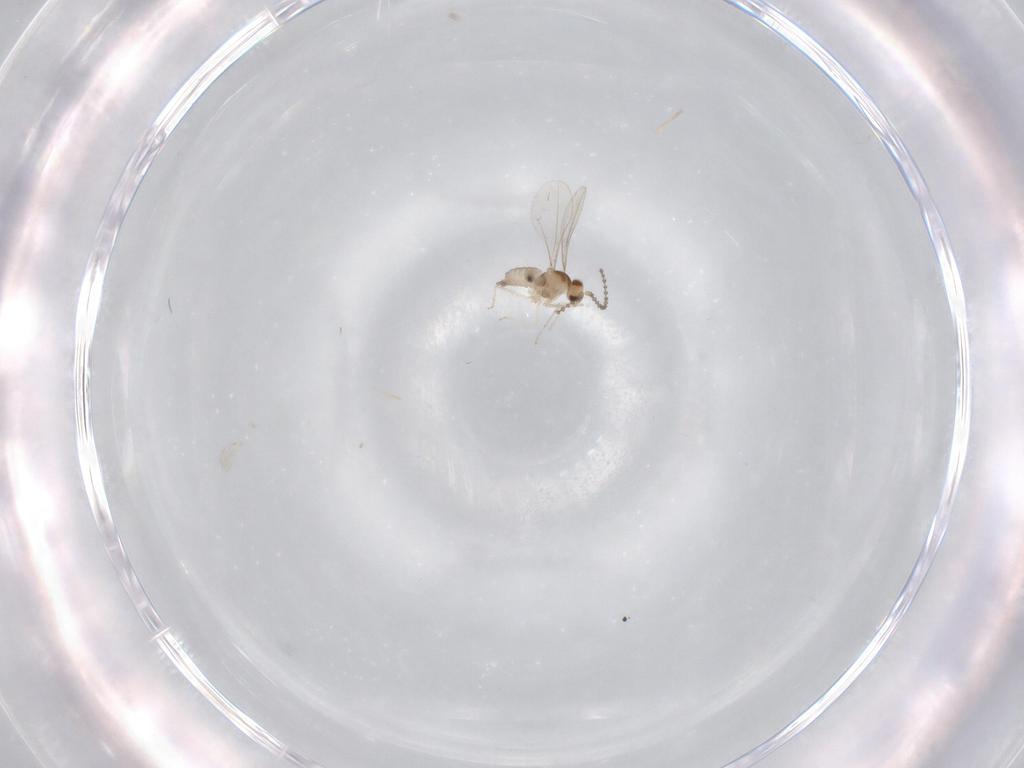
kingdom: Animalia
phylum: Arthropoda
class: Insecta
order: Diptera
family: Cecidomyiidae
